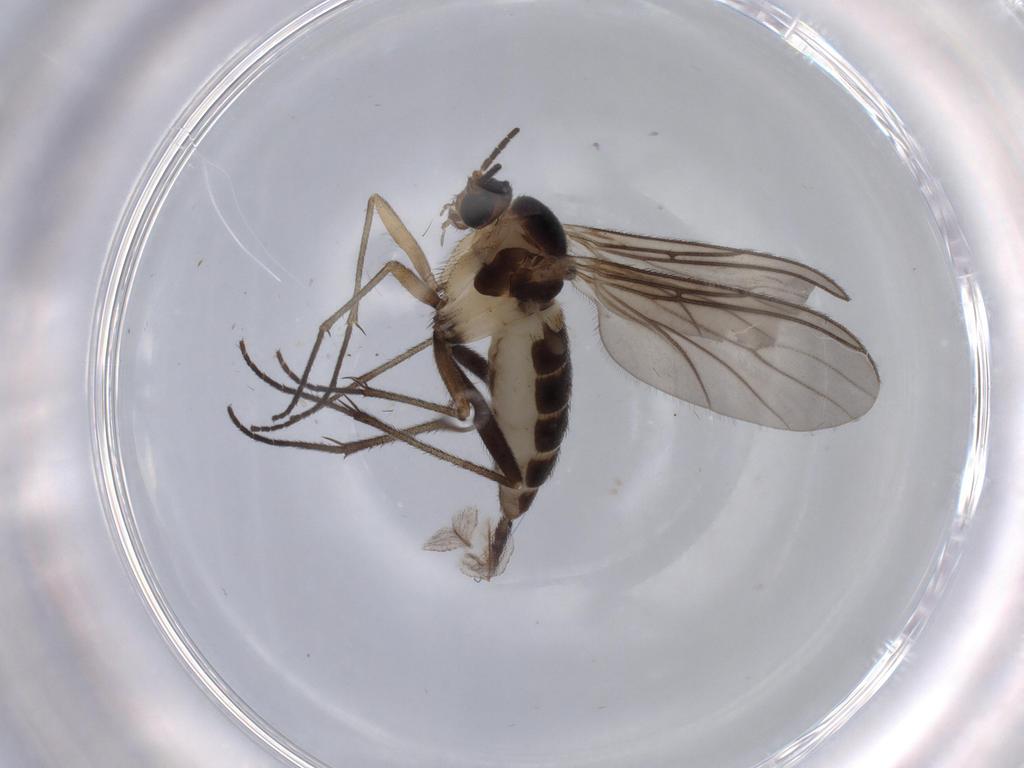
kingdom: Animalia
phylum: Arthropoda
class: Insecta
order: Diptera
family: Sciaridae
